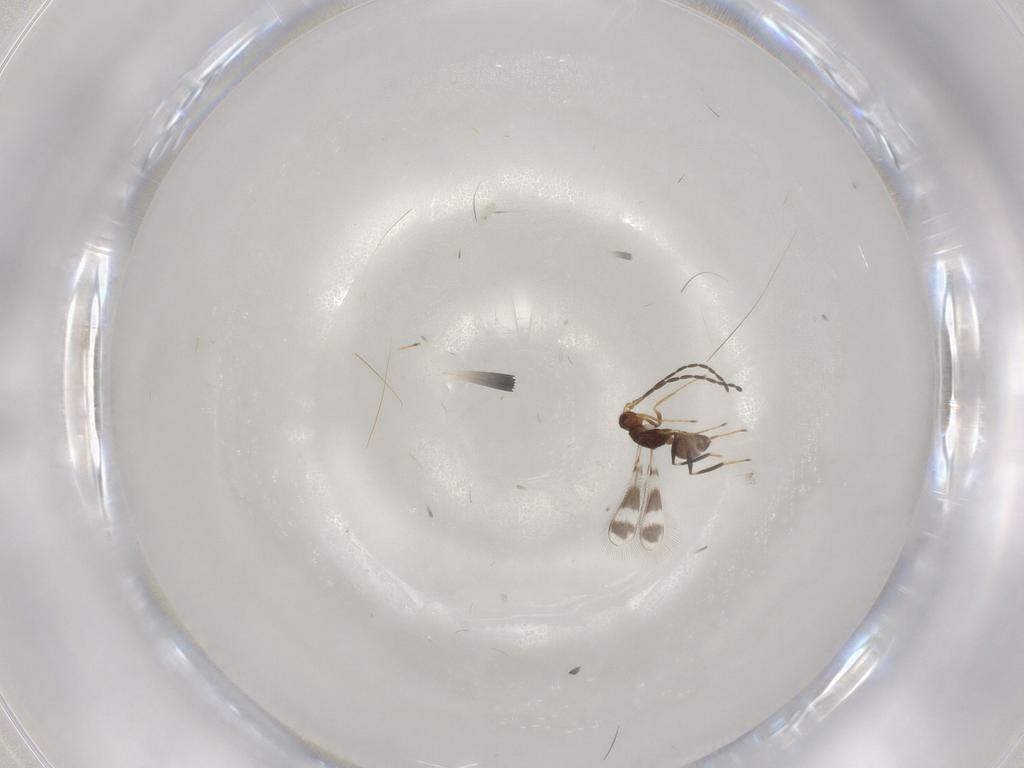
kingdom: Animalia
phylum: Arthropoda
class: Insecta
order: Hymenoptera
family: Mymaridae
